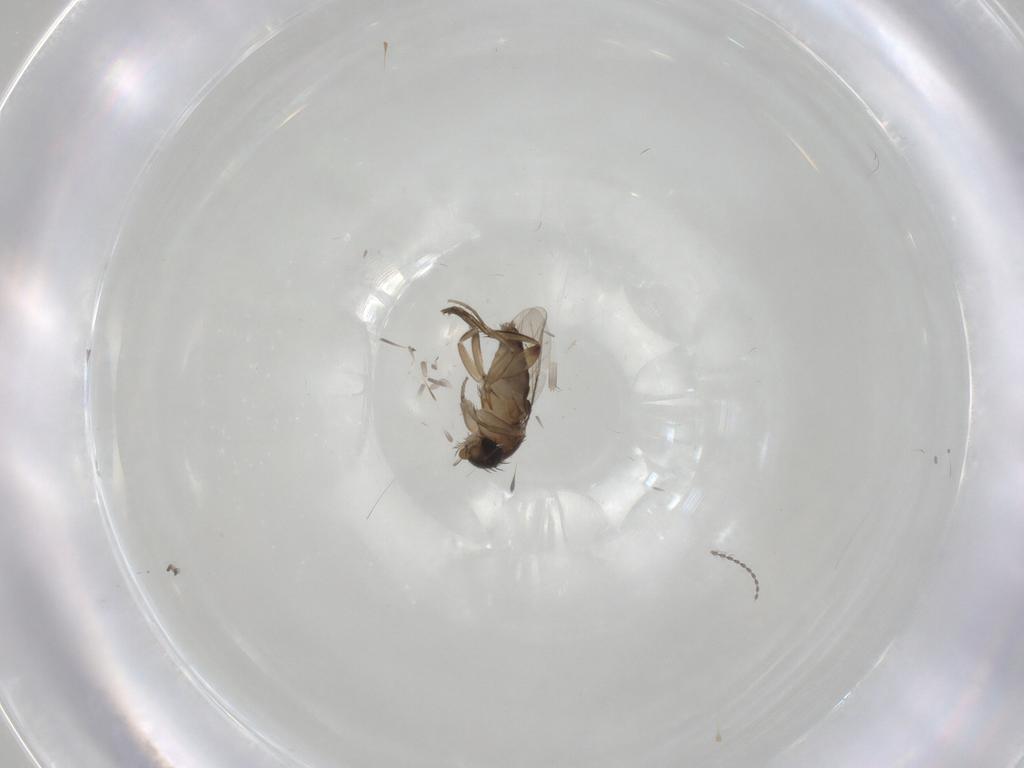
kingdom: Animalia
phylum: Arthropoda
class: Insecta
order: Diptera
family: Phoridae
